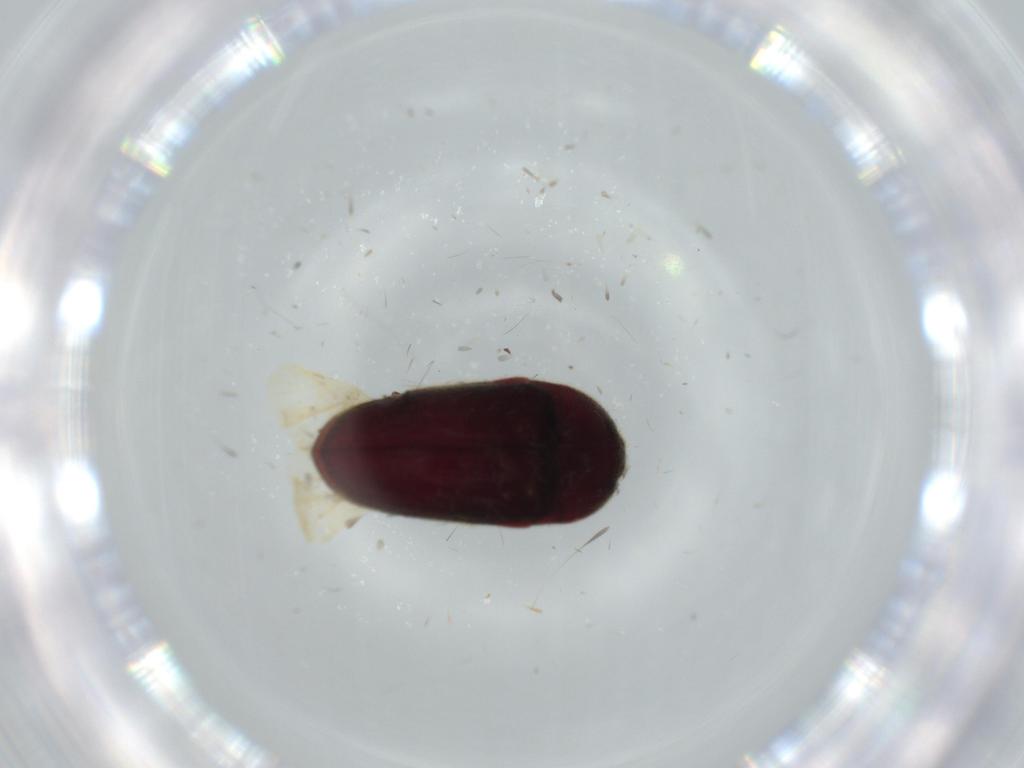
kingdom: Animalia
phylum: Arthropoda
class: Insecta
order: Coleoptera
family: Throscidae
